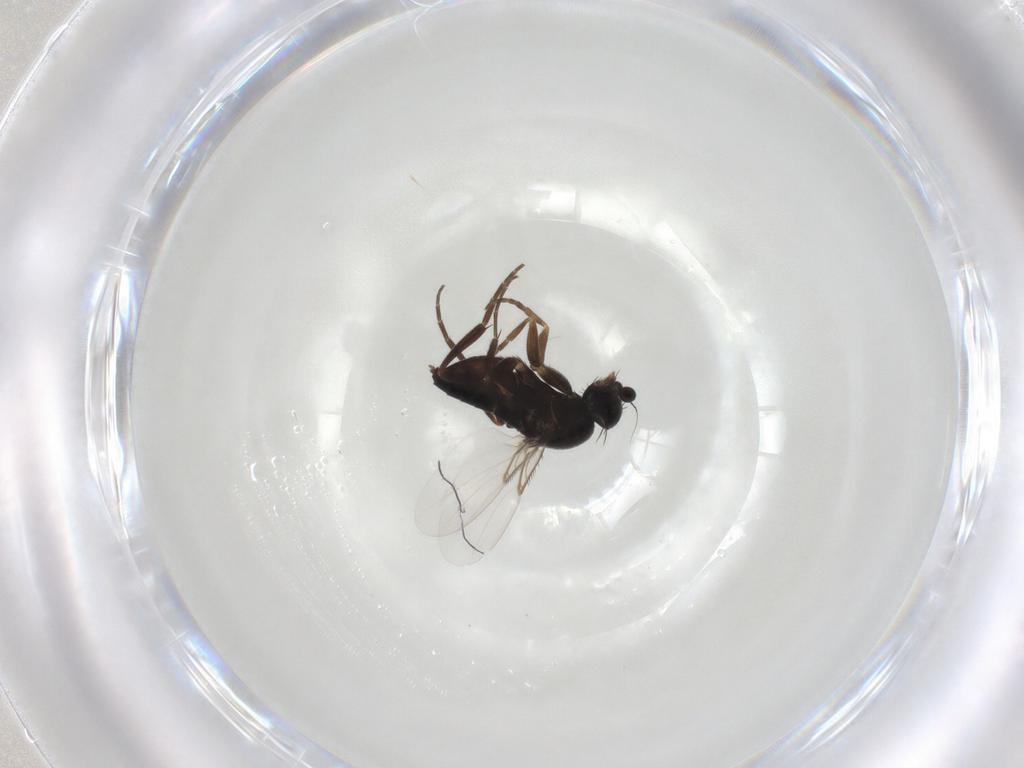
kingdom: Animalia
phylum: Arthropoda
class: Insecta
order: Diptera
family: Phoridae
